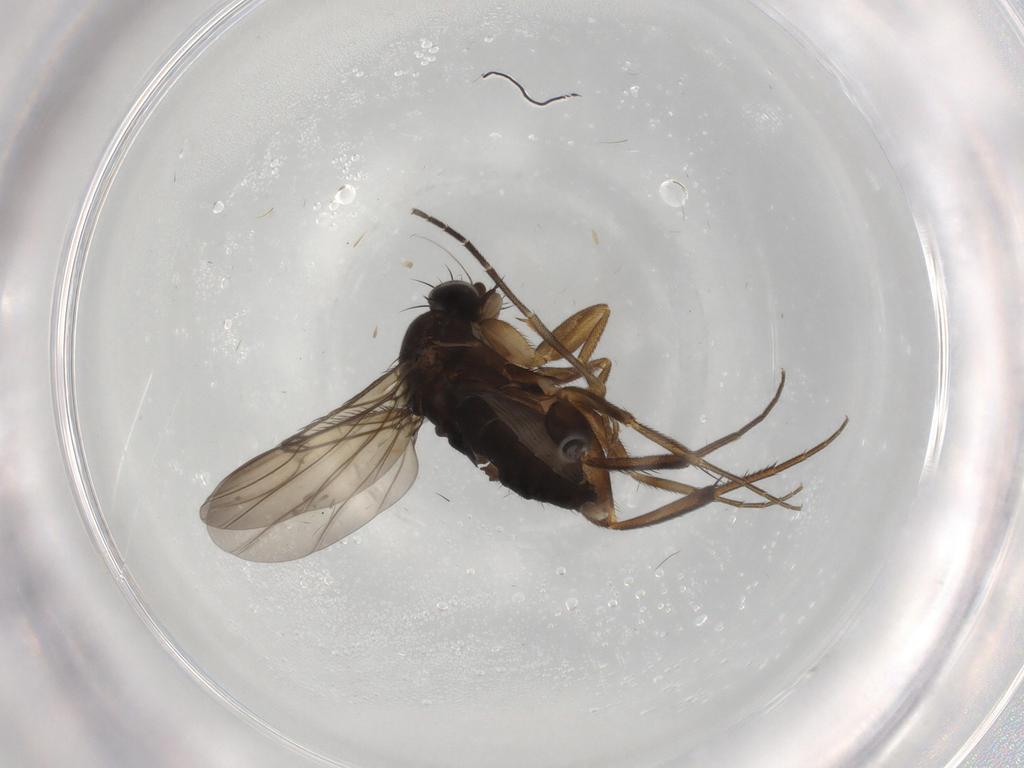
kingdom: Animalia
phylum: Arthropoda
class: Insecta
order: Diptera
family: Phoridae
